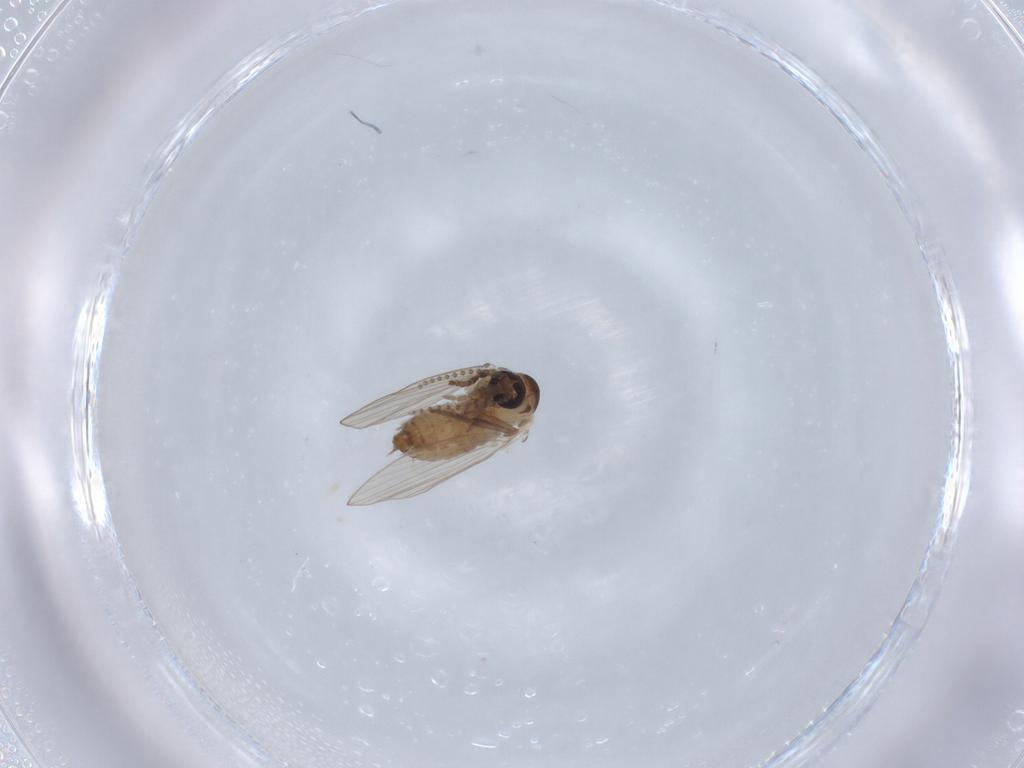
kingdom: Animalia
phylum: Arthropoda
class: Insecta
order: Diptera
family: Psychodidae
